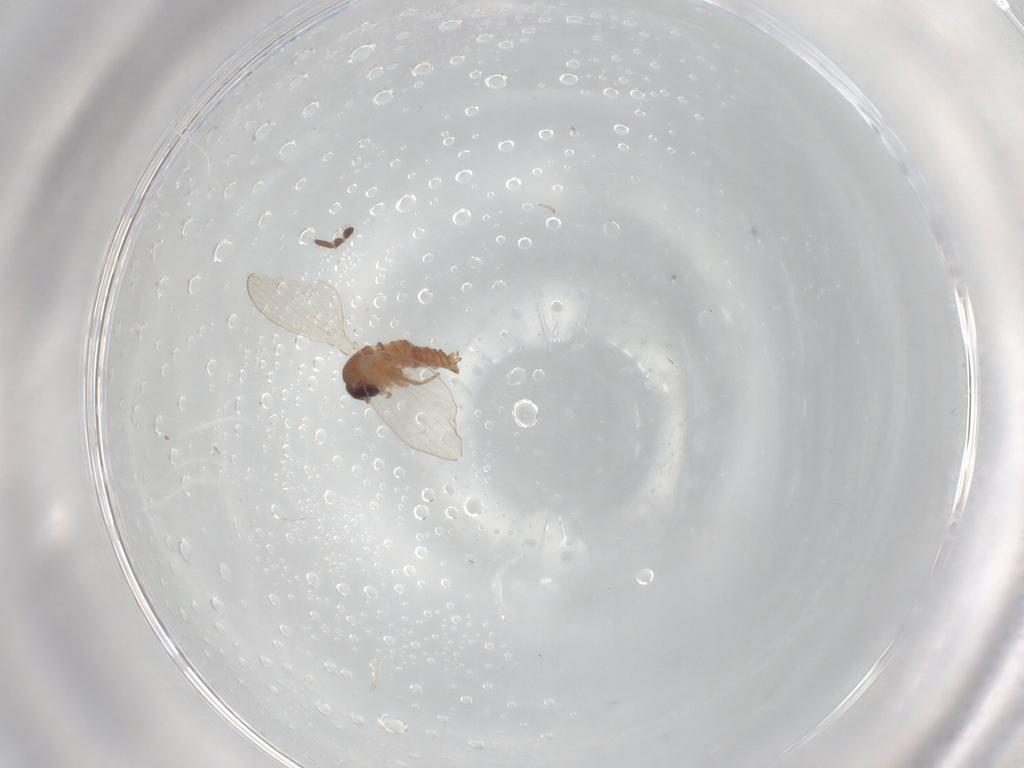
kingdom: Animalia
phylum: Arthropoda
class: Insecta
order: Diptera
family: Psychodidae
